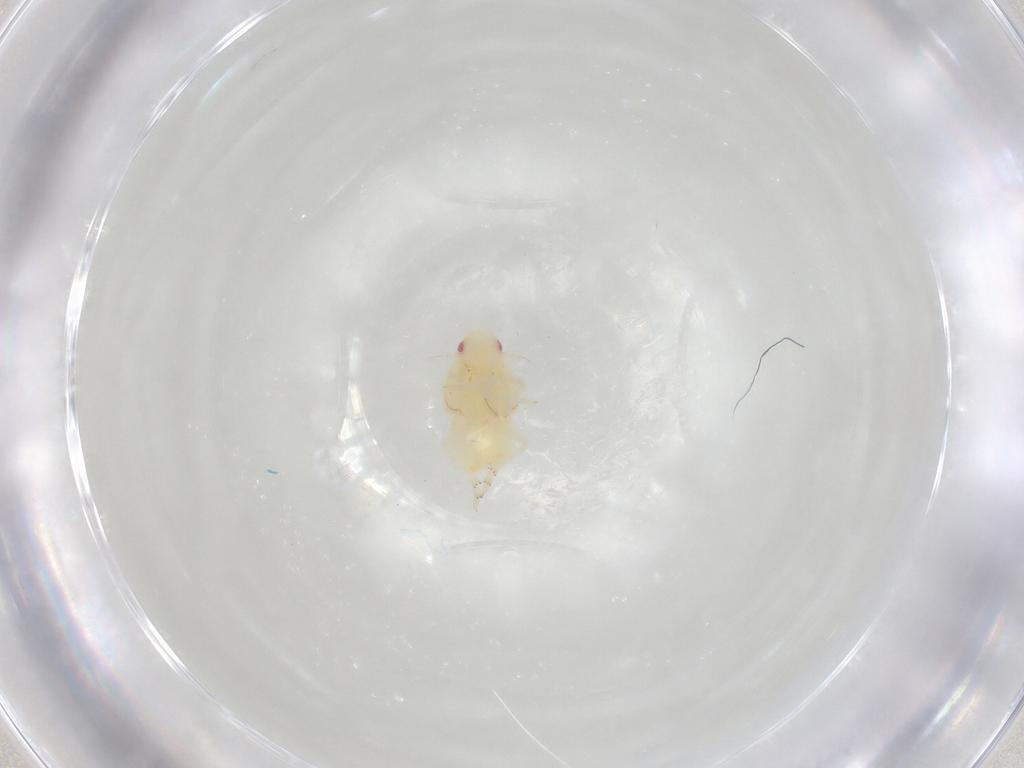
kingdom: Animalia
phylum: Arthropoda
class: Insecta
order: Hemiptera
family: Flatidae
